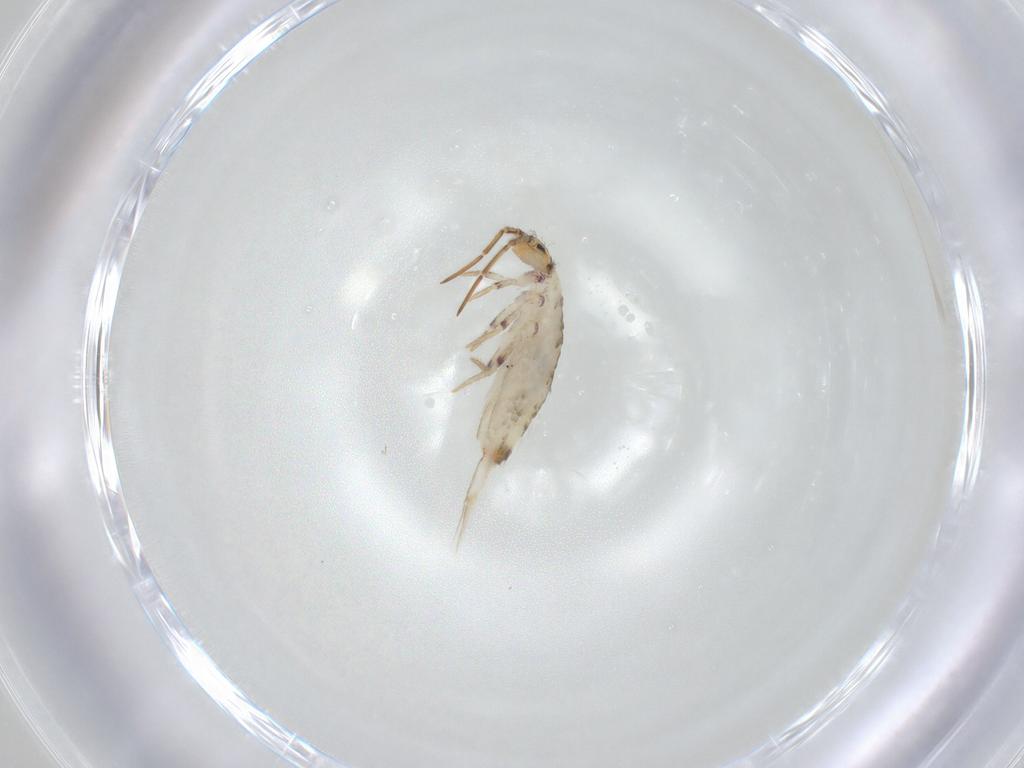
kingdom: Animalia
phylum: Arthropoda
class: Collembola
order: Entomobryomorpha
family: Entomobryidae
